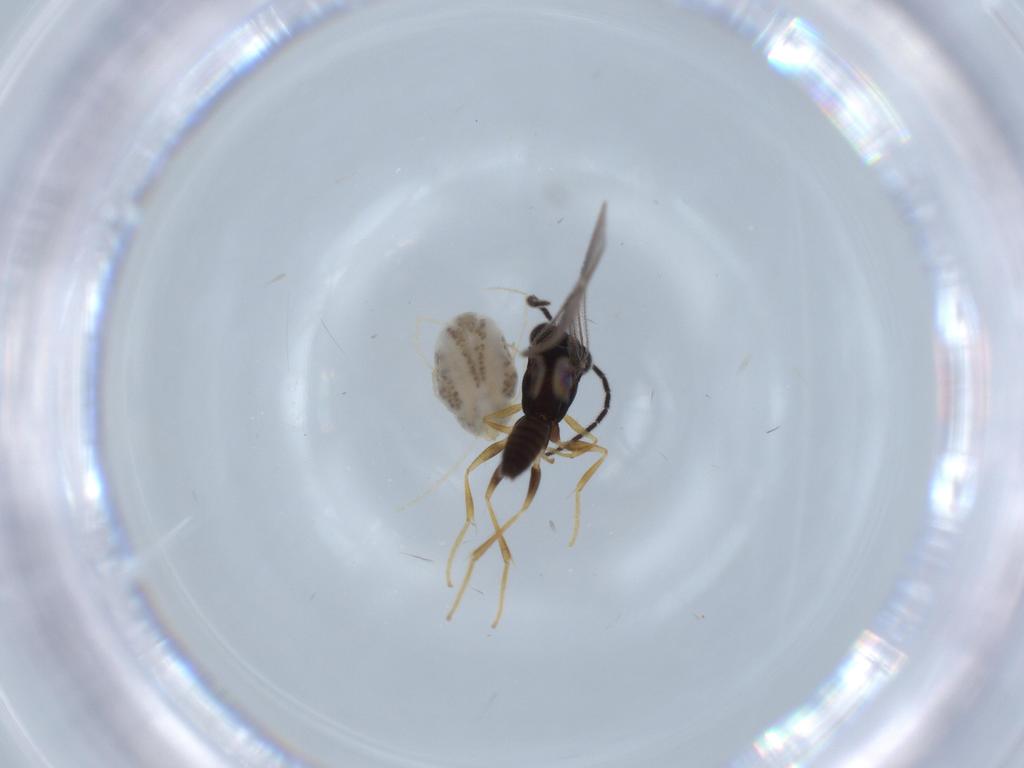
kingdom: Animalia
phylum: Arthropoda
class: Insecta
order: Hymenoptera
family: Dryinidae
